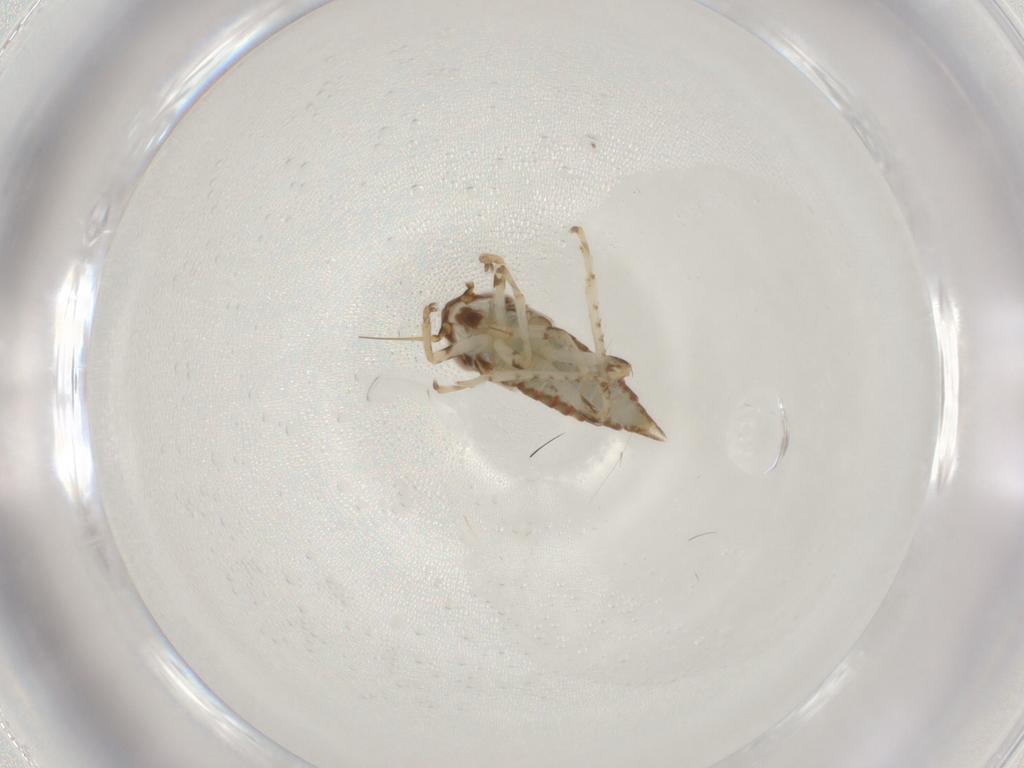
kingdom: Animalia
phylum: Arthropoda
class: Insecta
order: Hemiptera
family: Cicadellidae
